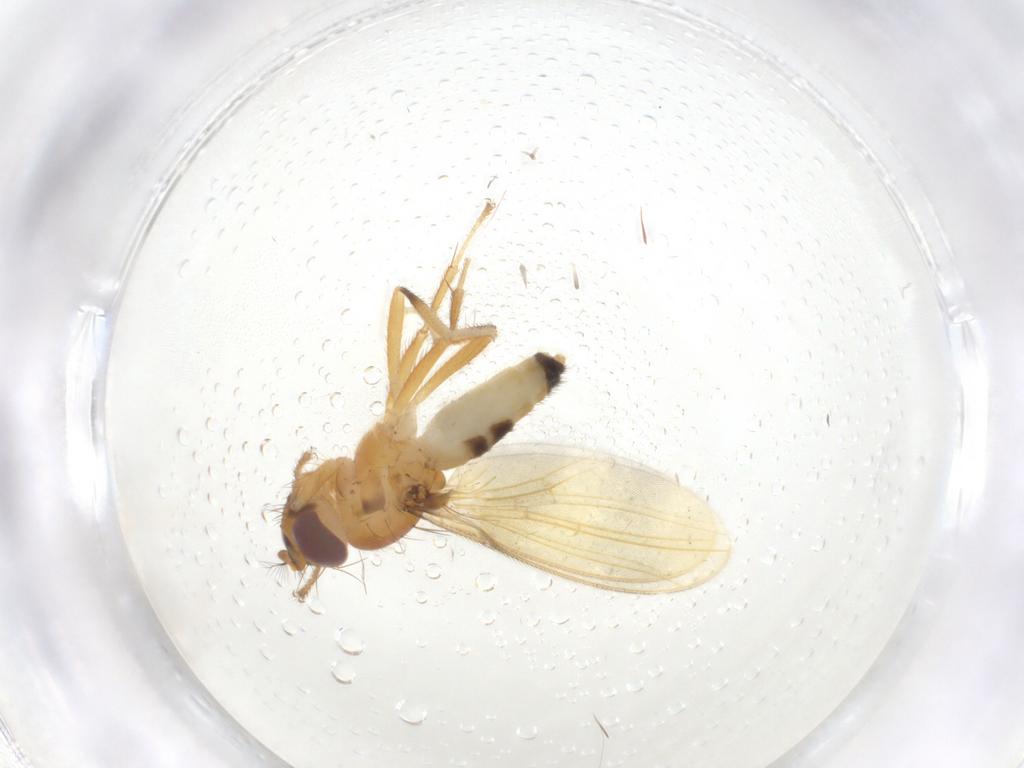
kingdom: Animalia
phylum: Arthropoda
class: Insecta
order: Diptera
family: Periscelididae
